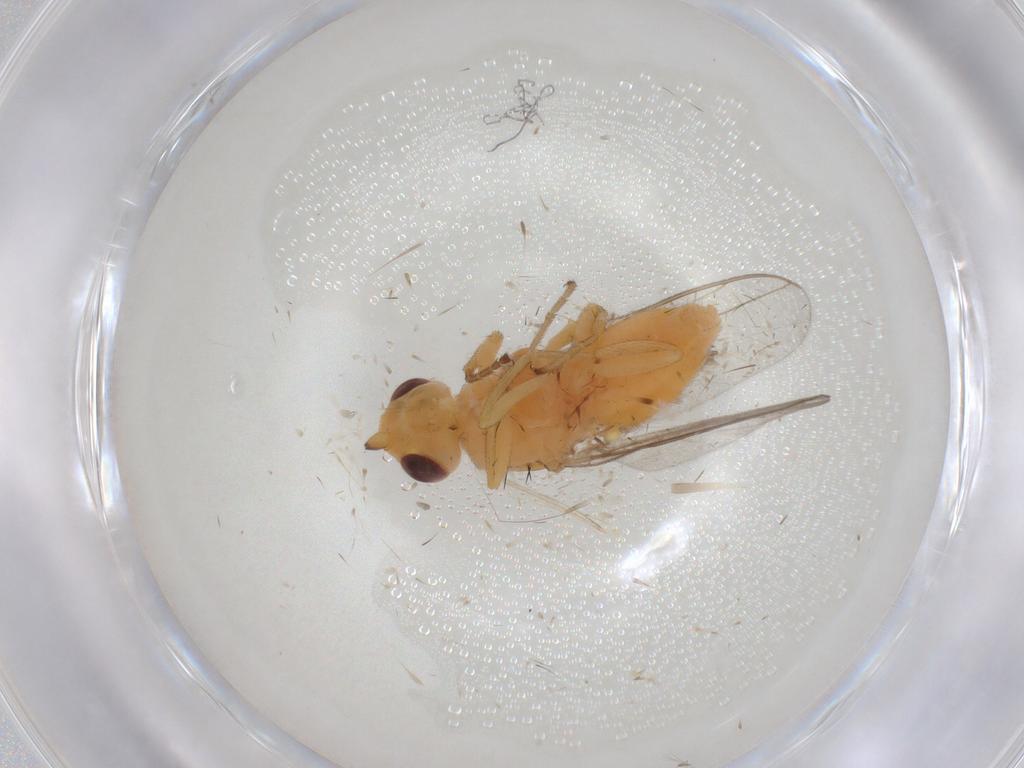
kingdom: Animalia
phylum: Arthropoda
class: Insecta
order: Diptera
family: Chloropidae
